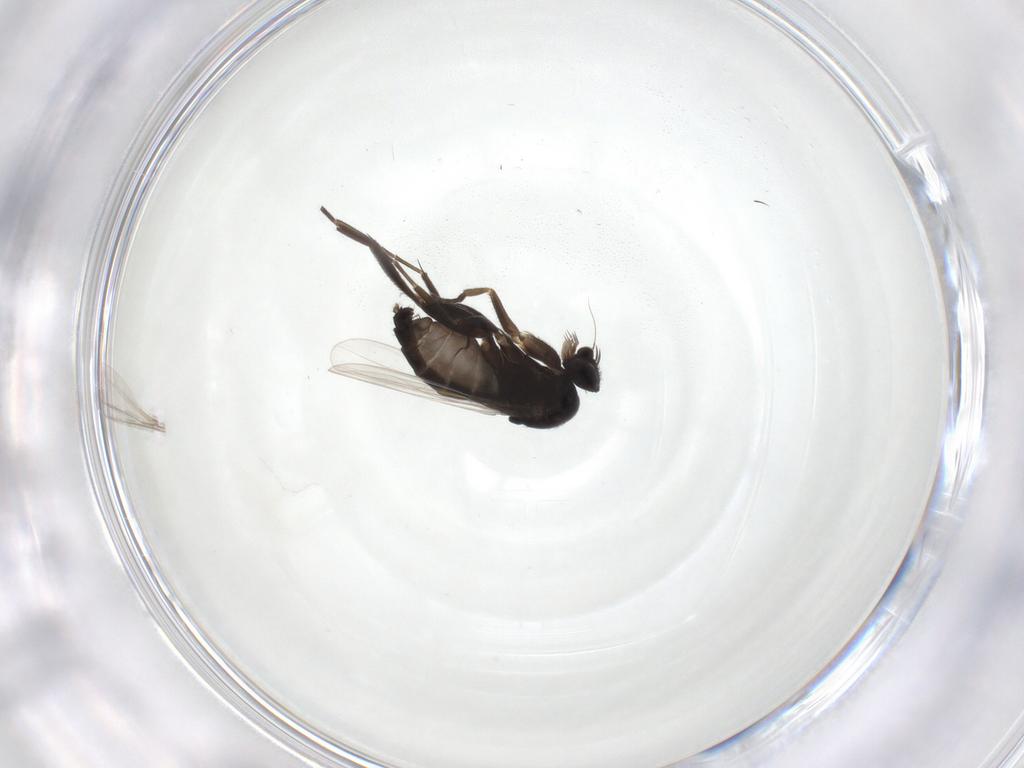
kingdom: Animalia
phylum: Arthropoda
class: Insecta
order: Diptera
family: Phoridae
